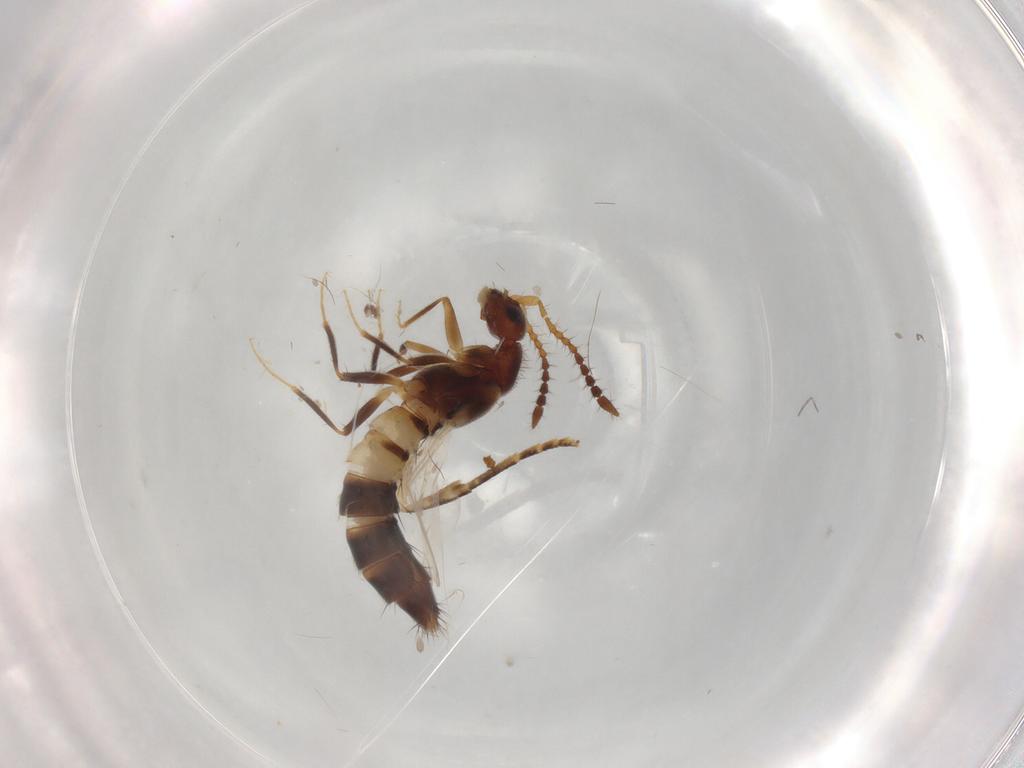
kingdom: Animalia
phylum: Arthropoda
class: Insecta
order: Coleoptera
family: Staphylinidae
